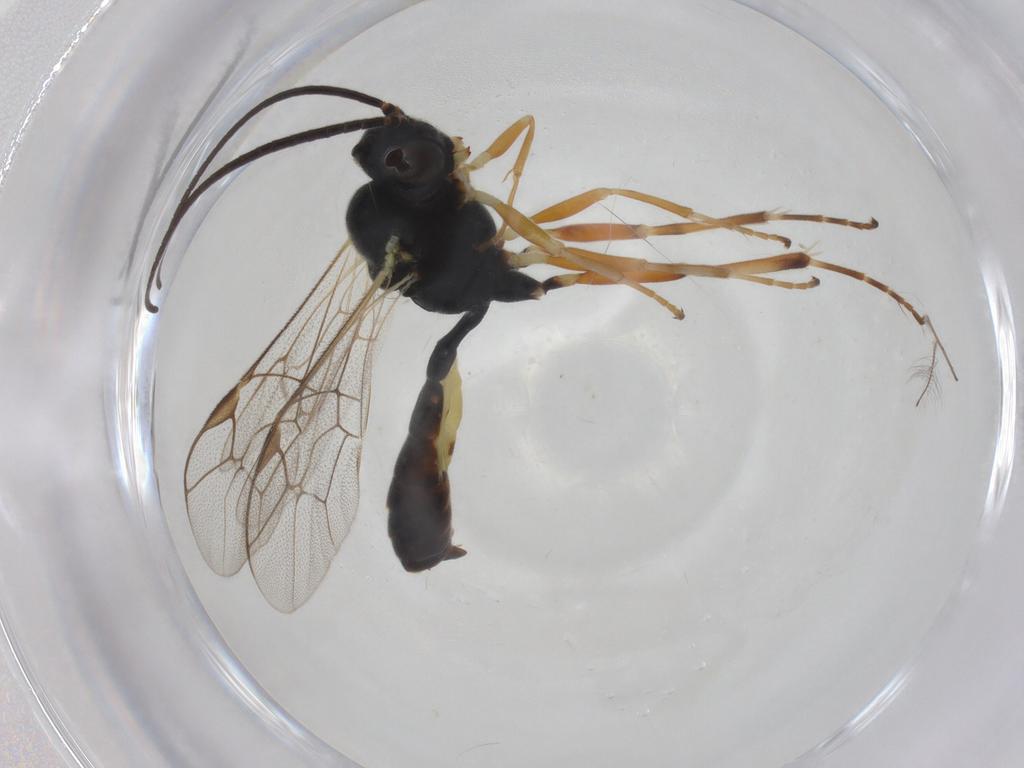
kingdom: Animalia
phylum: Arthropoda
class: Insecta
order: Hymenoptera
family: Ichneumonidae
